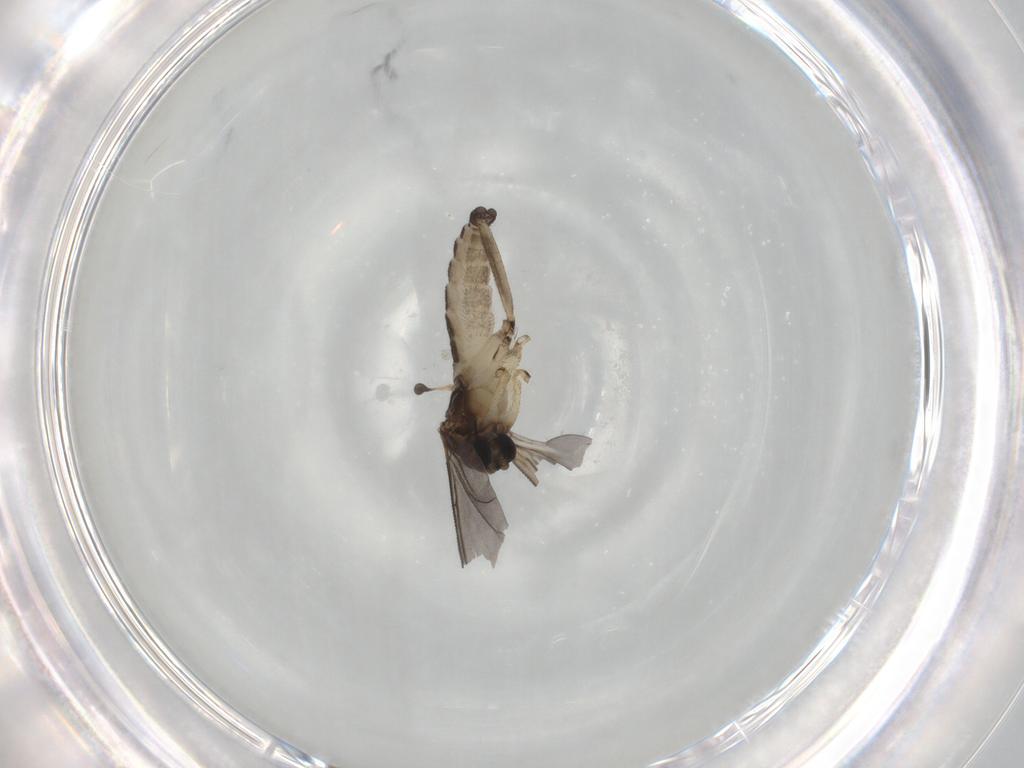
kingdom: Animalia
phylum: Arthropoda
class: Insecta
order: Diptera
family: Sciaridae
